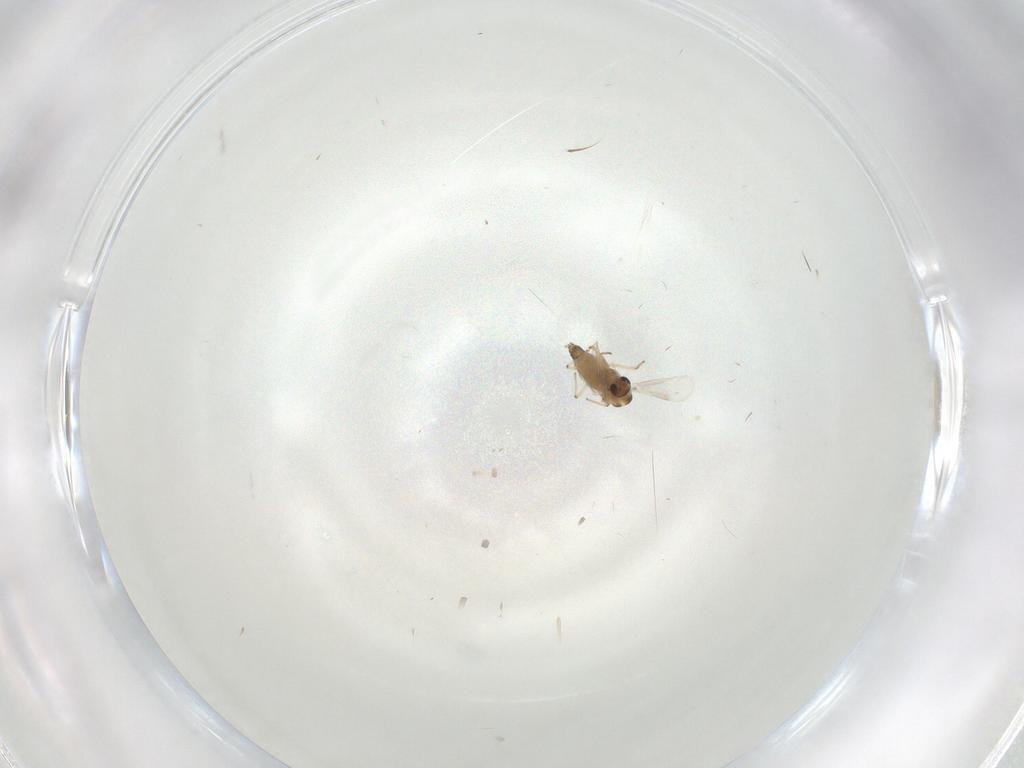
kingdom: Animalia
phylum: Arthropoda
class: Insecta
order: Diptera
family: Chironomidae
